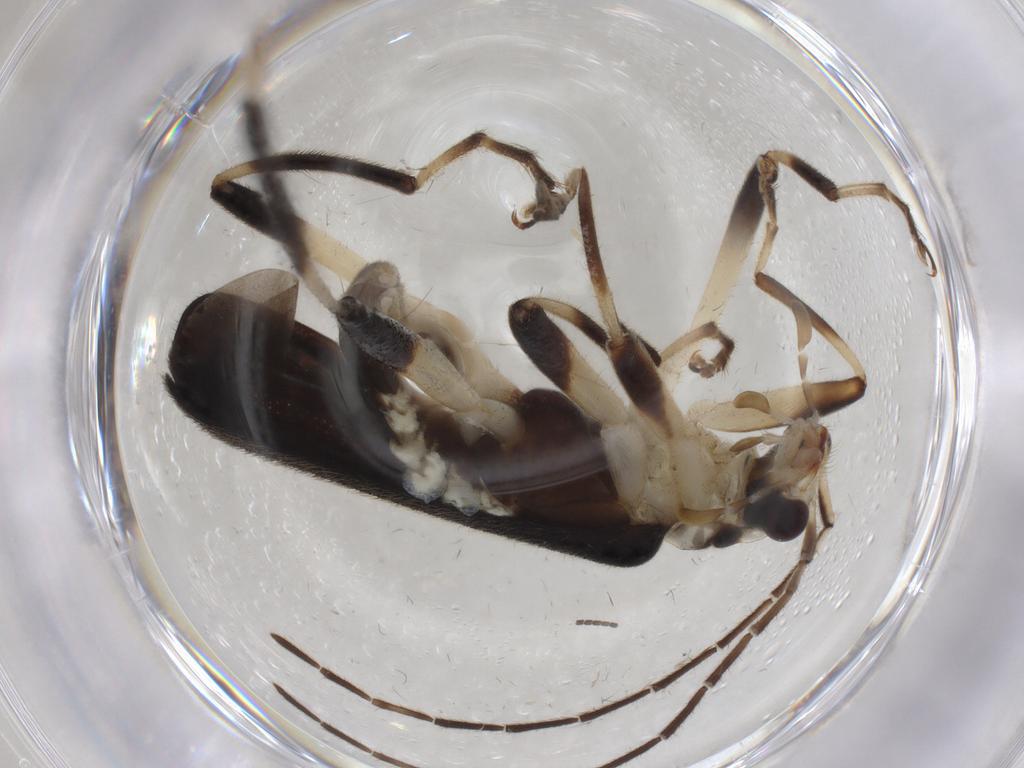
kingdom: Animalia
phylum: Arthropoda
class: Insecta
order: Coleoptera
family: Cantharidae
